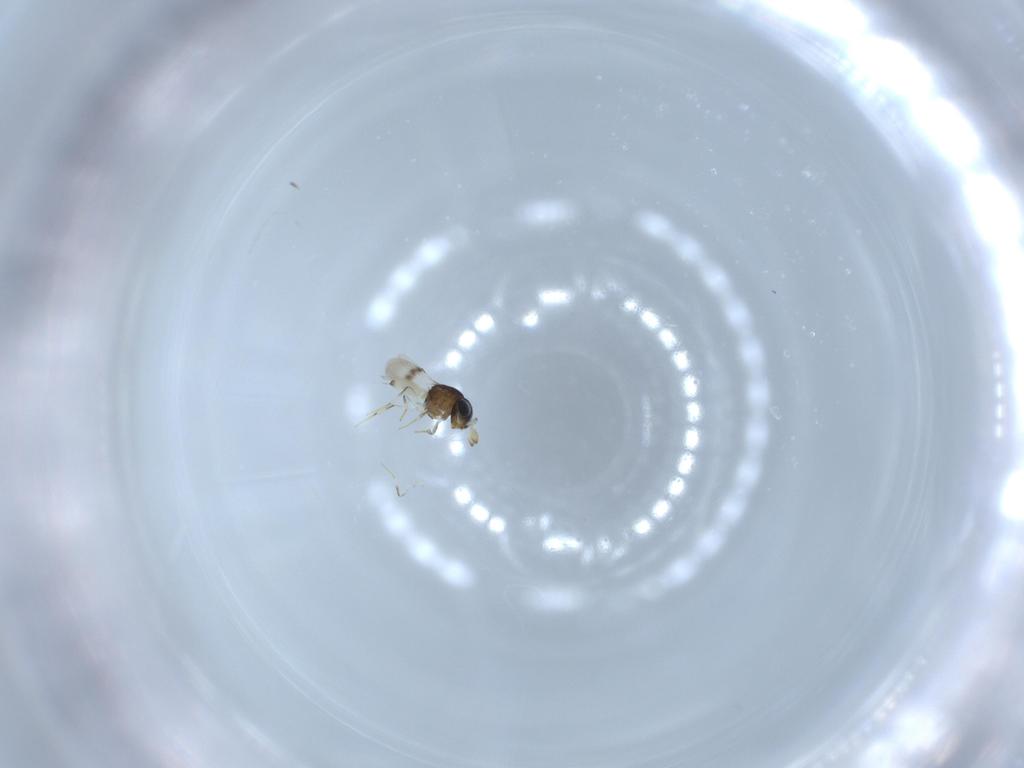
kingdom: Animalia
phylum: Arthropoda
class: Insecta
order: Hymenoptera
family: Scelionidae
